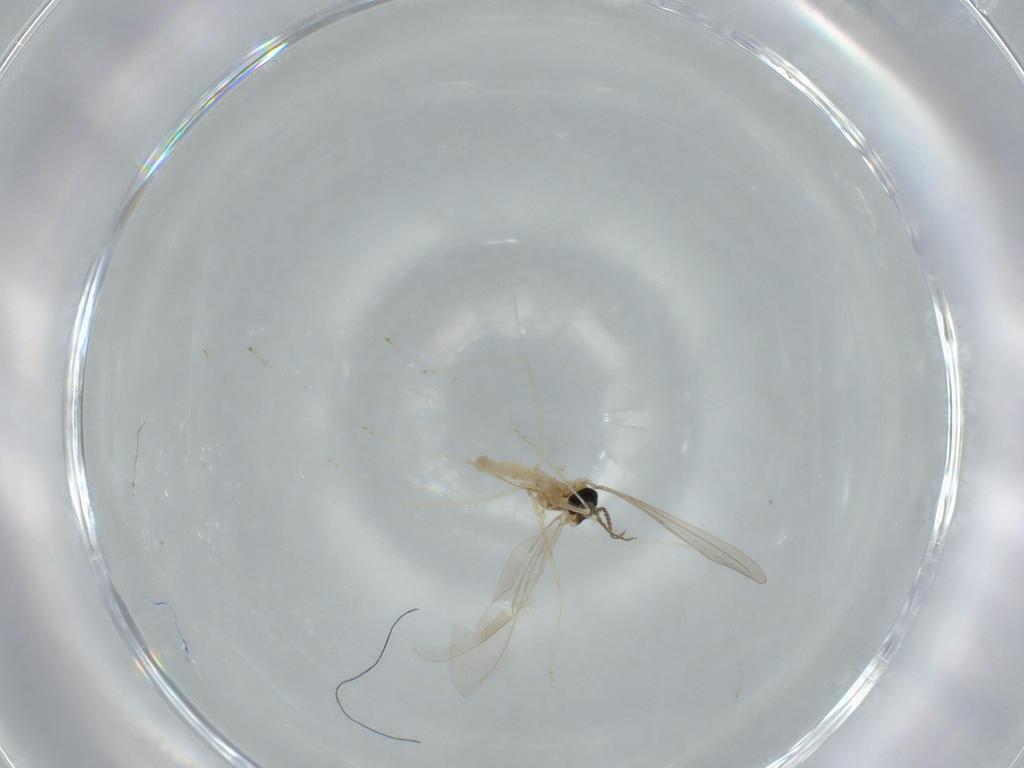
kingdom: Animalia
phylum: Arthropoda
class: Insecta
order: Diptera
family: Cecidomyiidae
